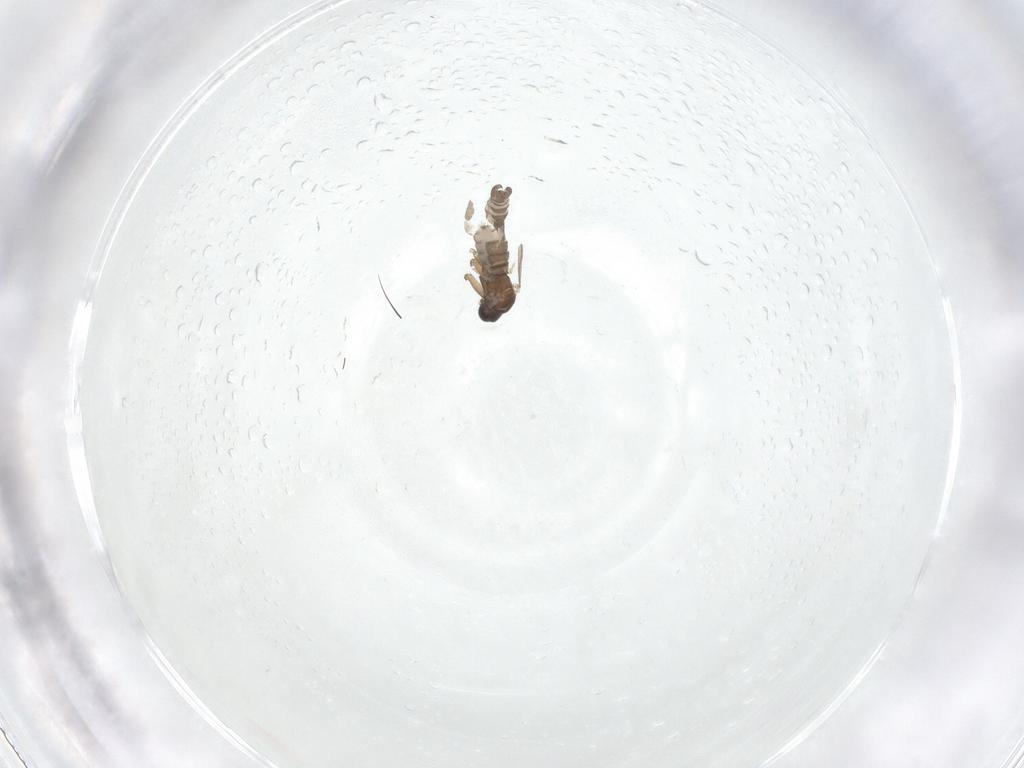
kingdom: Animalia
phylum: Arthropoda
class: Insecta
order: Diptera
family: Sciaridae
